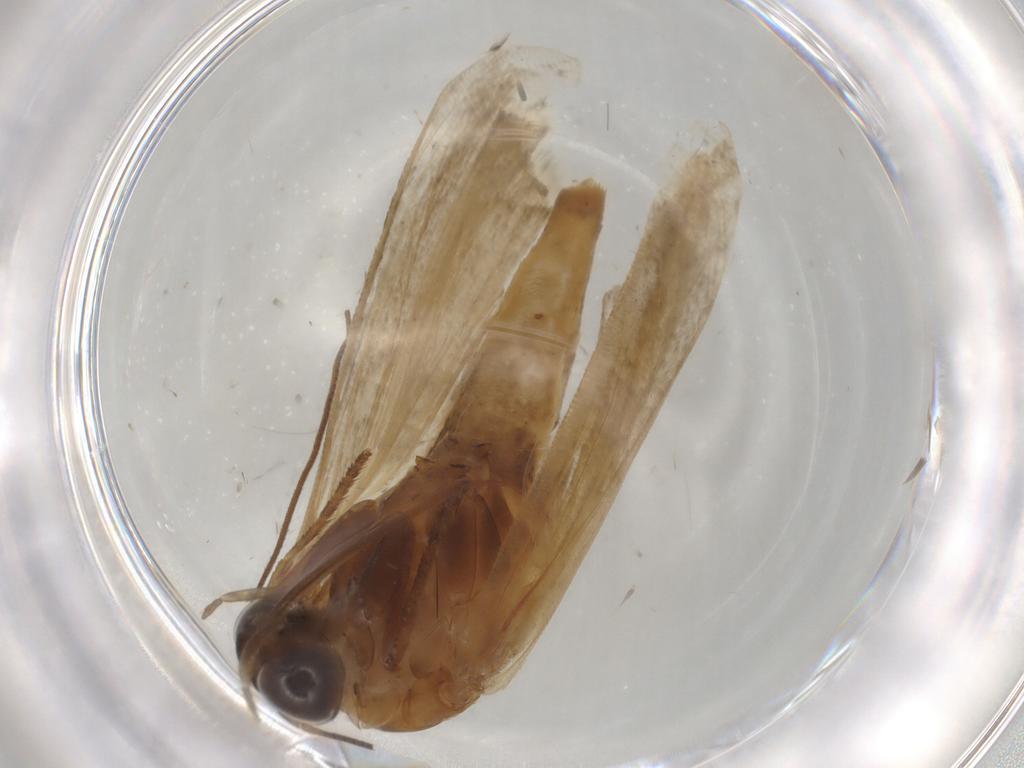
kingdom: Animalia
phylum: Arthropoda
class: Insecta
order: Lepidoptera
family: Pyralidae
